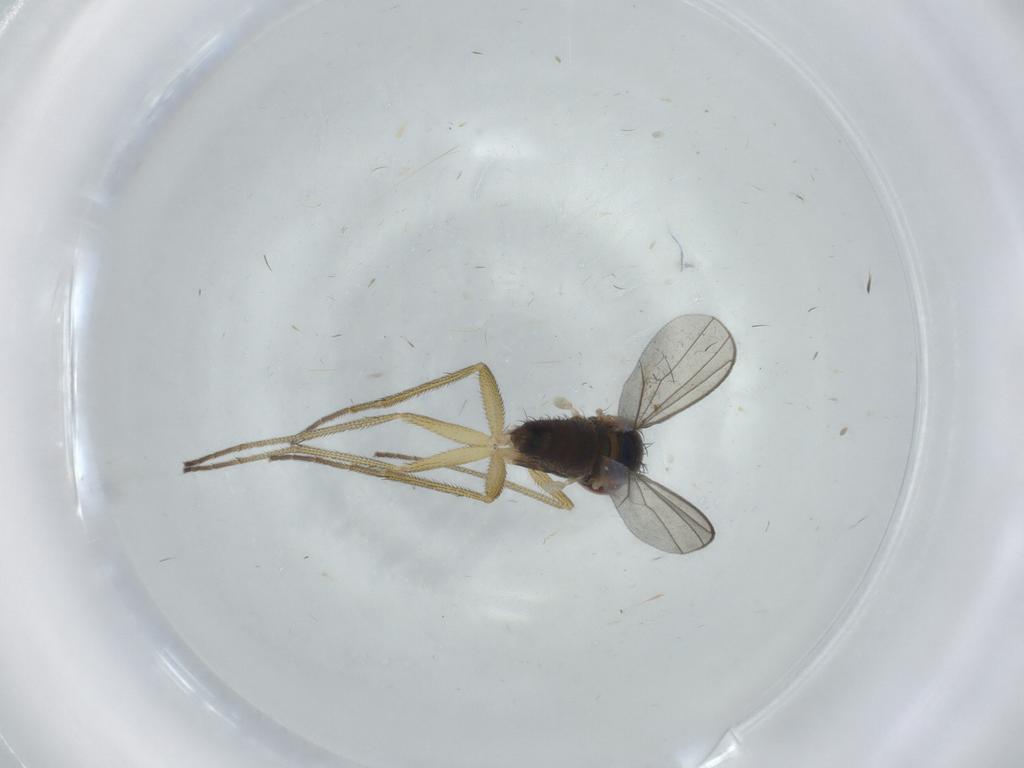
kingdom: Animalia
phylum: Arthropoda
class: Insecta
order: Diptera
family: Dolichopodidae
